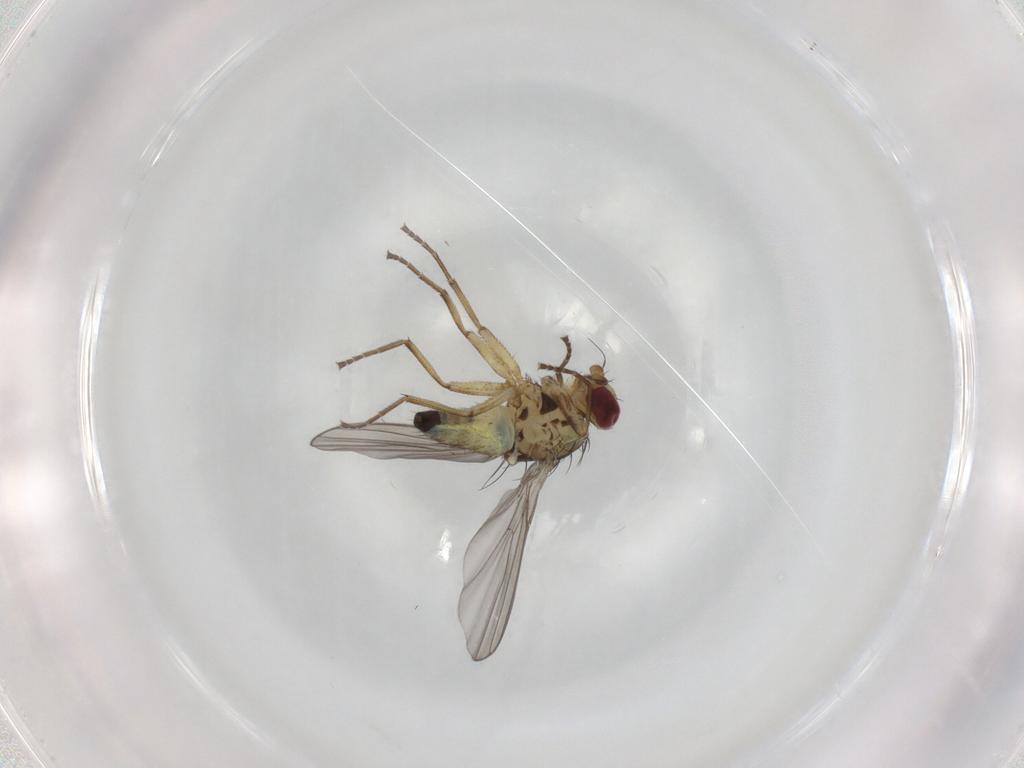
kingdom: Animalia
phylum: Arthropoda
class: Insecta
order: Diptera
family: Agromyzidae
